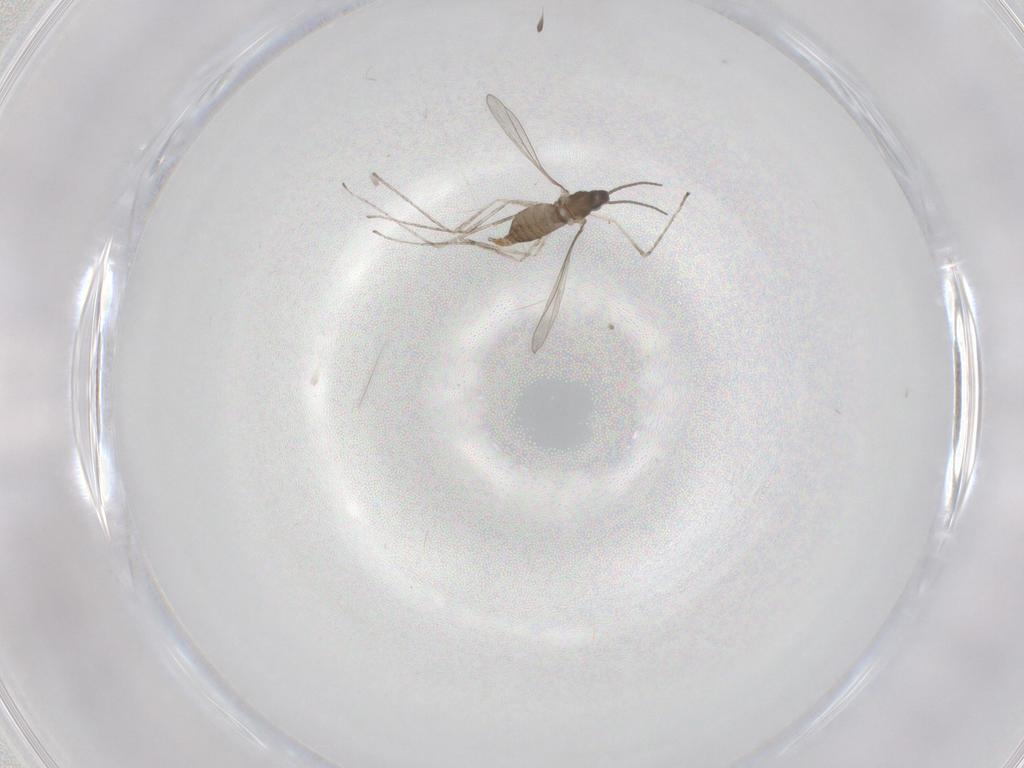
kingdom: Animalia
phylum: Arthropoda
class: Insecta
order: Diptera
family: Cecidomyiidae
